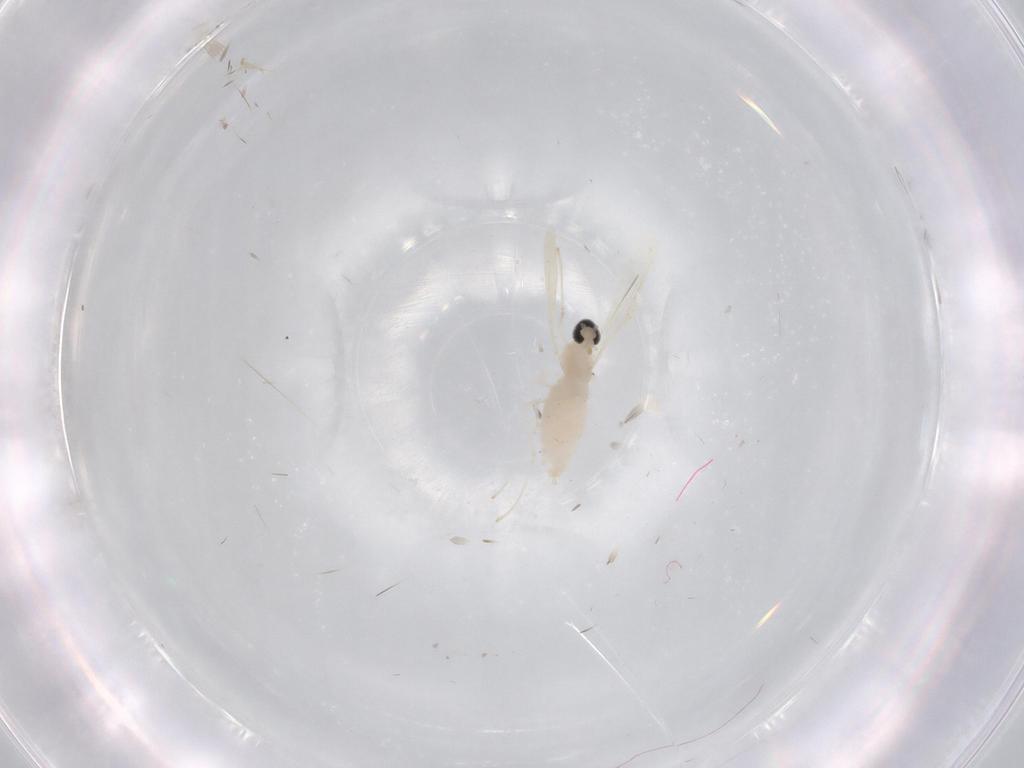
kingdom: Animalia
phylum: Arthropoda
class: Insecta
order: Diptera
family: Cecidomyiidae
